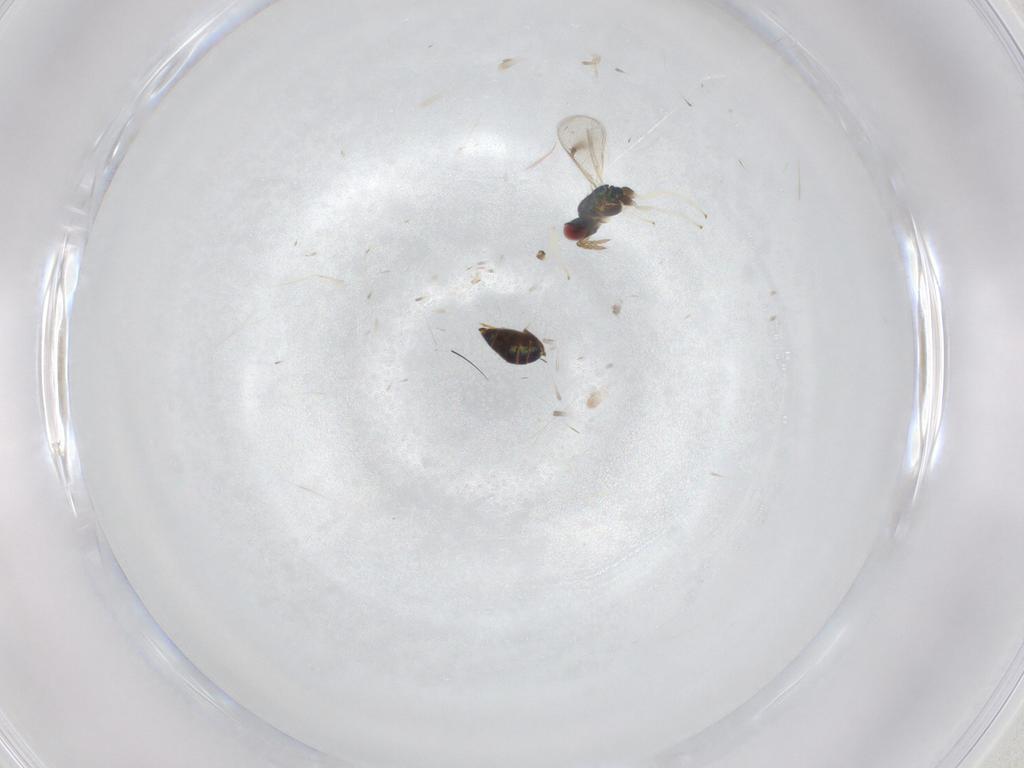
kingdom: Animalia
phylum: Arthropoda
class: Insecta
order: Hymenoptera
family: Eulophidae
